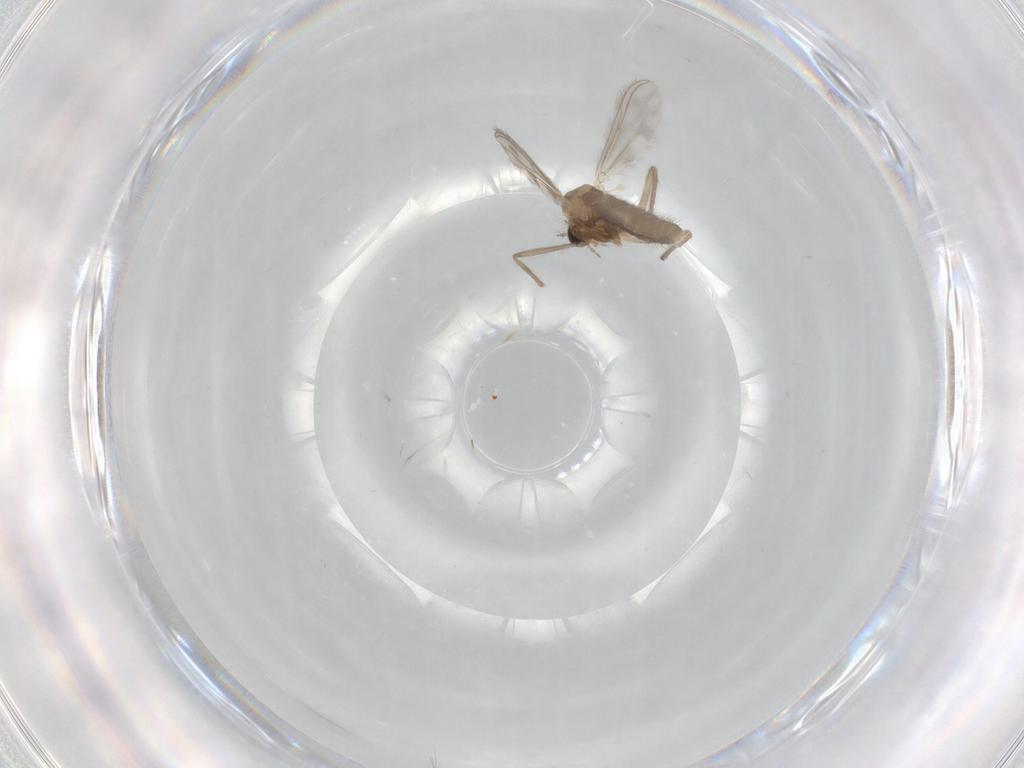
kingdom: Animalia
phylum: Arthropoda
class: Insecta
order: Diptera
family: Chironomidae
